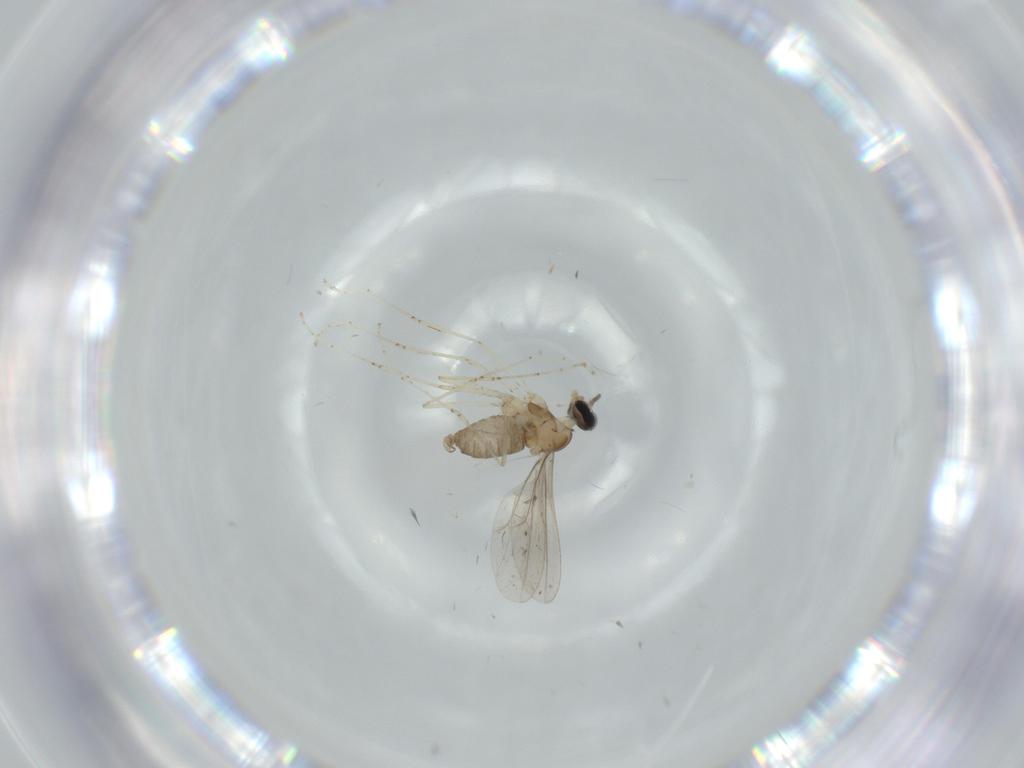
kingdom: Animalia
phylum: Arthropoda
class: Insecta
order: Diptera
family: Cecidomyiidae
